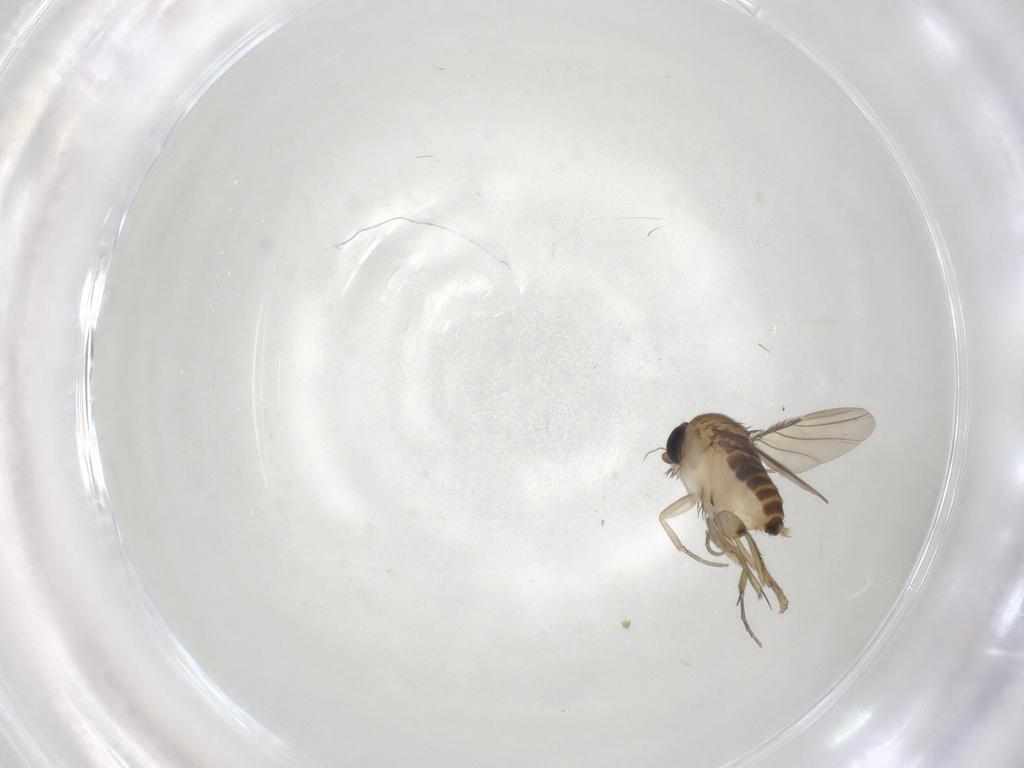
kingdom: Animalia
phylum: Arthropoda
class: Insecta
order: Diptera
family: Phoridae
